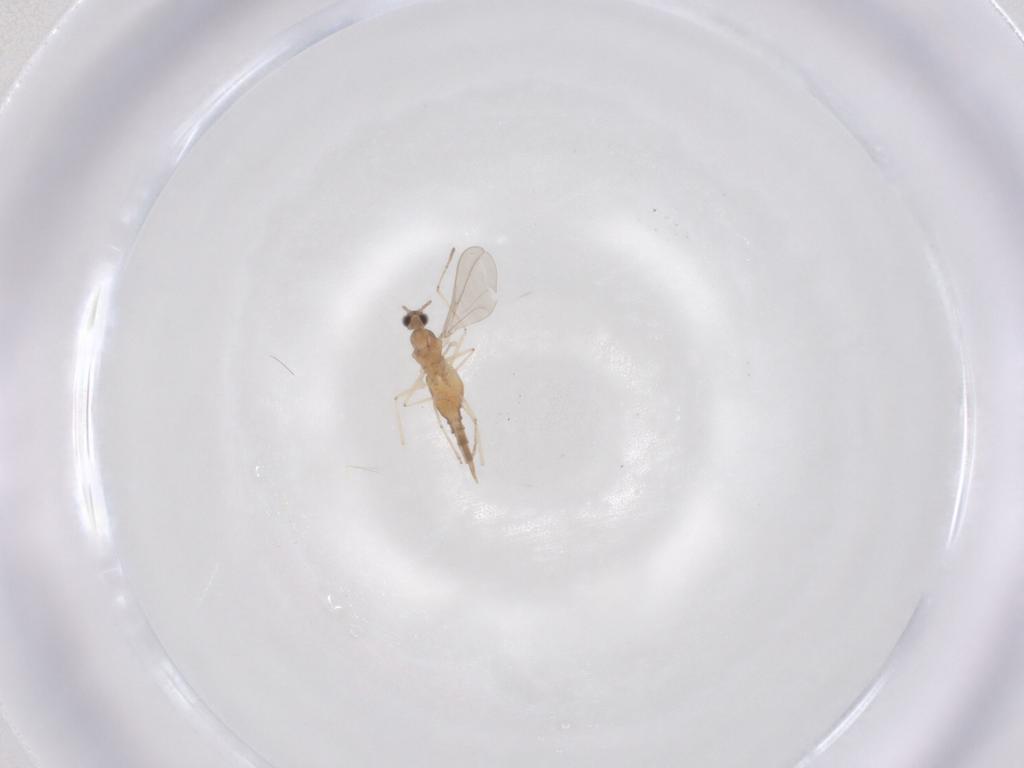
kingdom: Animalia
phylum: Arthropoda
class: Insecta
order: Diptera
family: Cecidomyiidae
